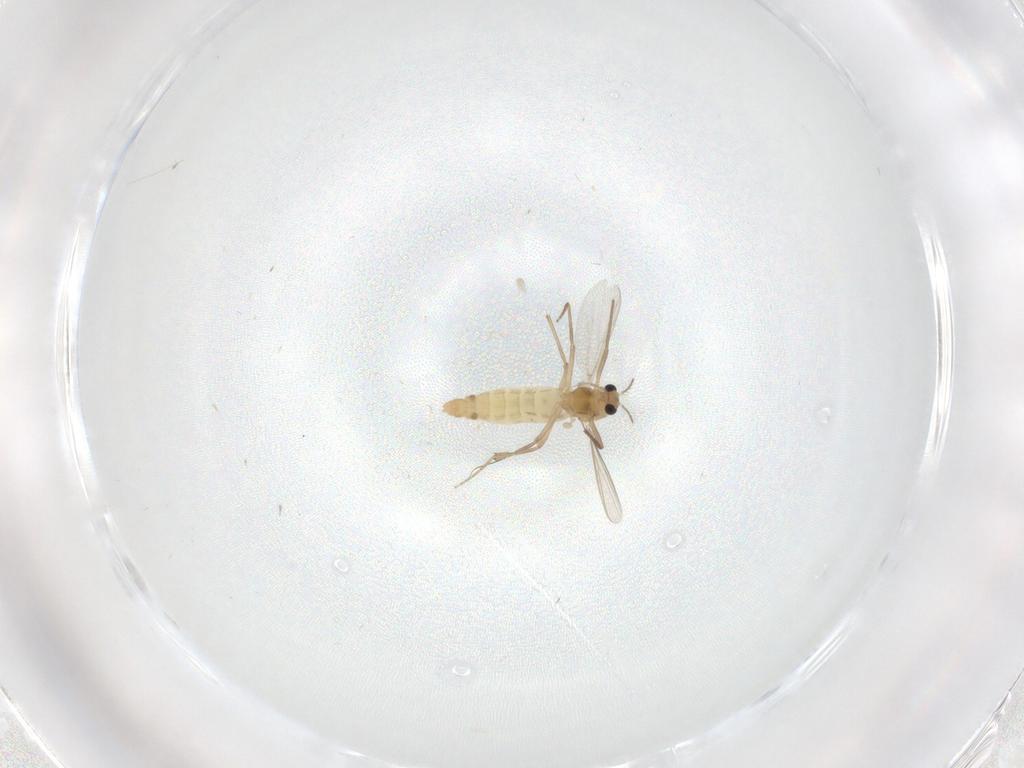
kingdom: Animalia
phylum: Arthropoda
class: Insecta
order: Diptera
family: Chironomidae
